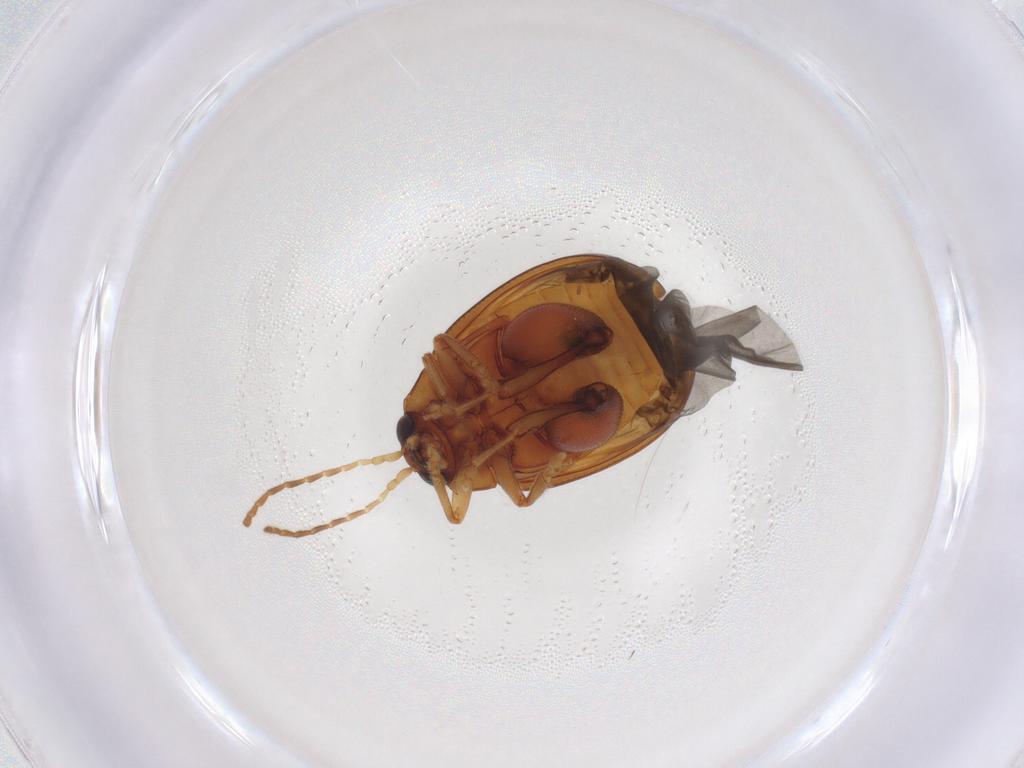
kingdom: Animalia
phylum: Arthropoda
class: Insecta
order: Coleoptera
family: Chrysomelidae
